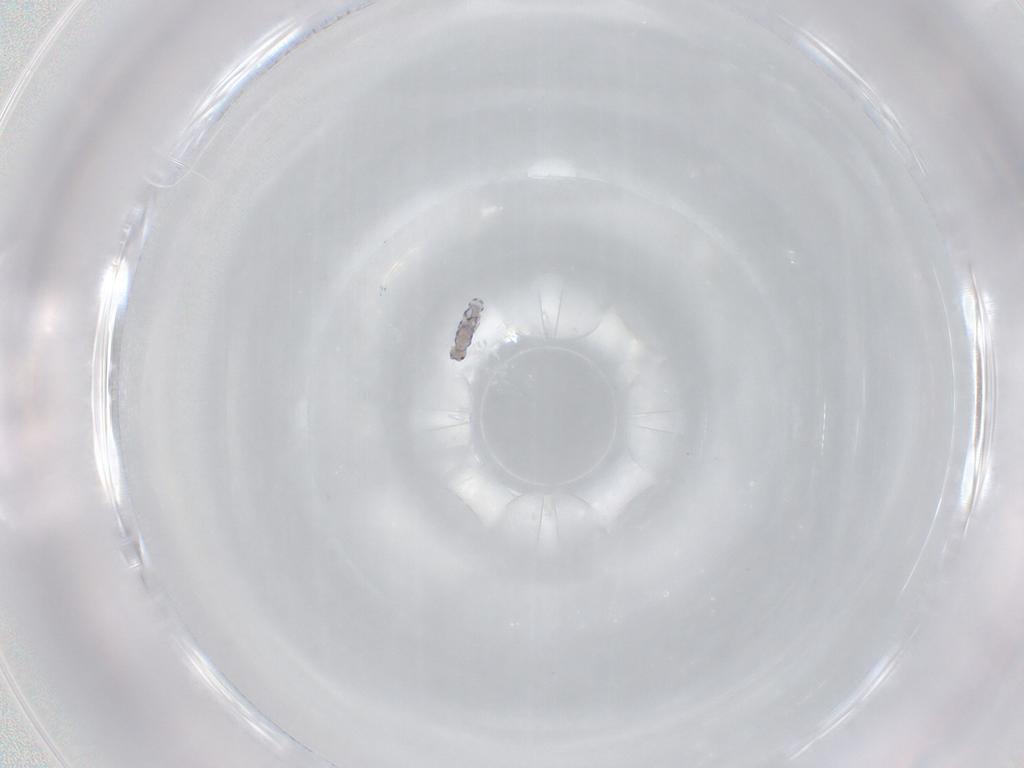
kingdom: Animalia
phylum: Arthropoda
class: Collembola
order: Entomobryomorpha
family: Entomobryidae
